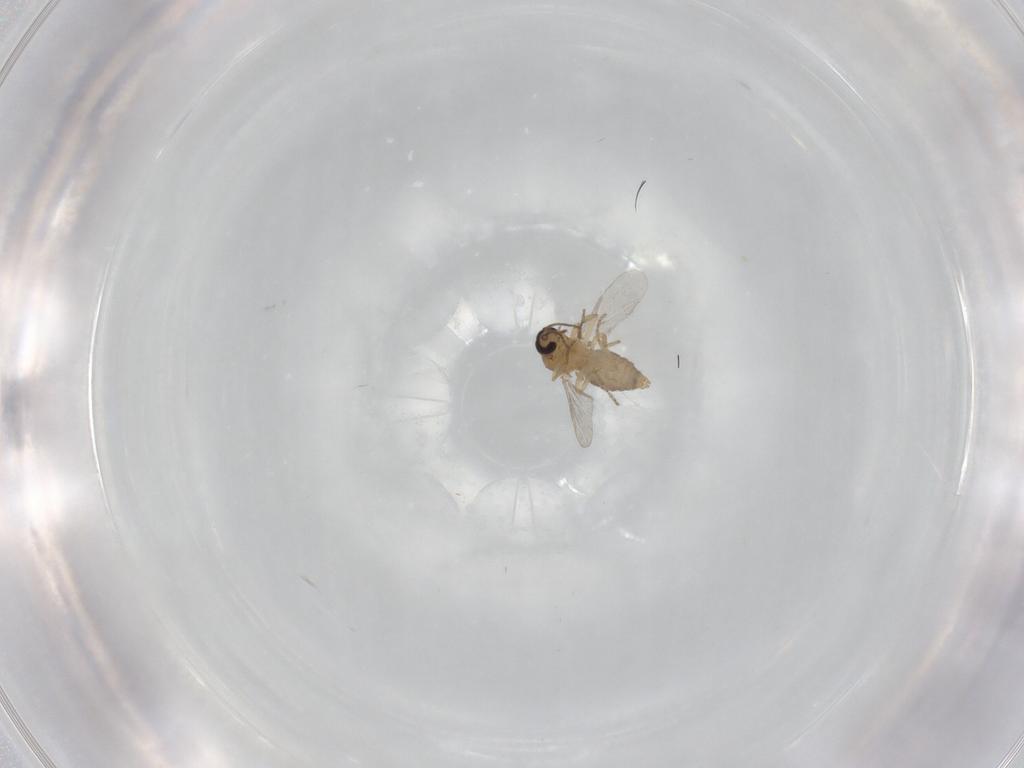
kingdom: Animalia
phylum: Arthropoda
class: Insecta
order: Diptera
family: Ceratopogonidae
